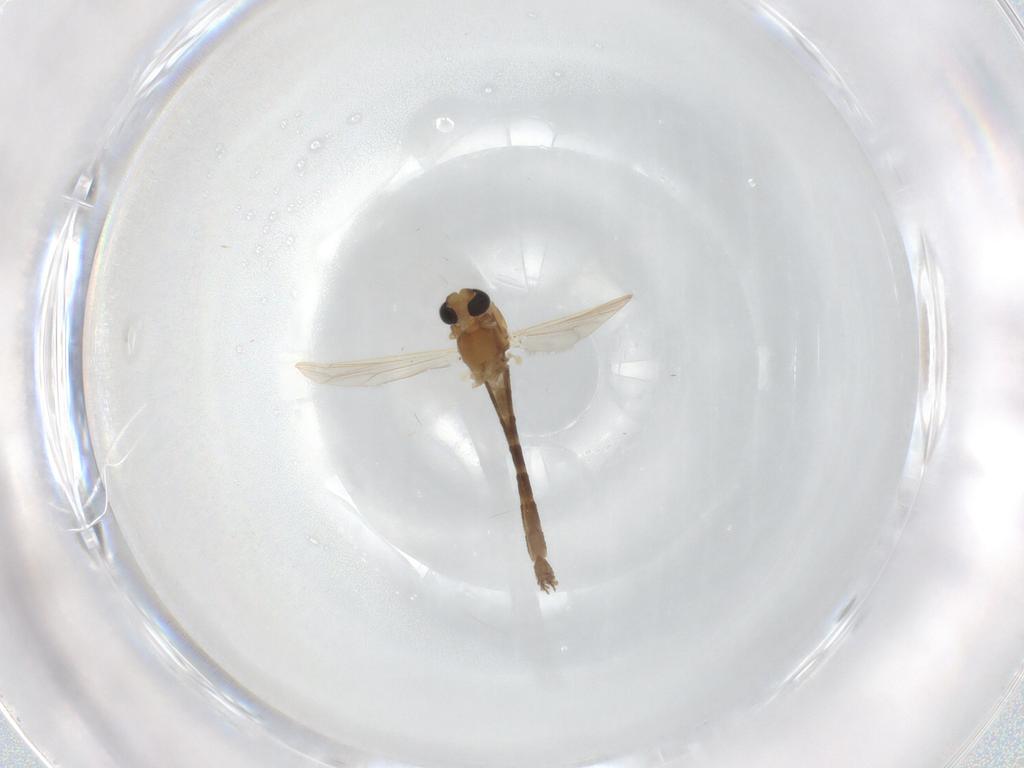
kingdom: Animalia
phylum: Arthropoda
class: Insecta
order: Diptera
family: Chironomidae
